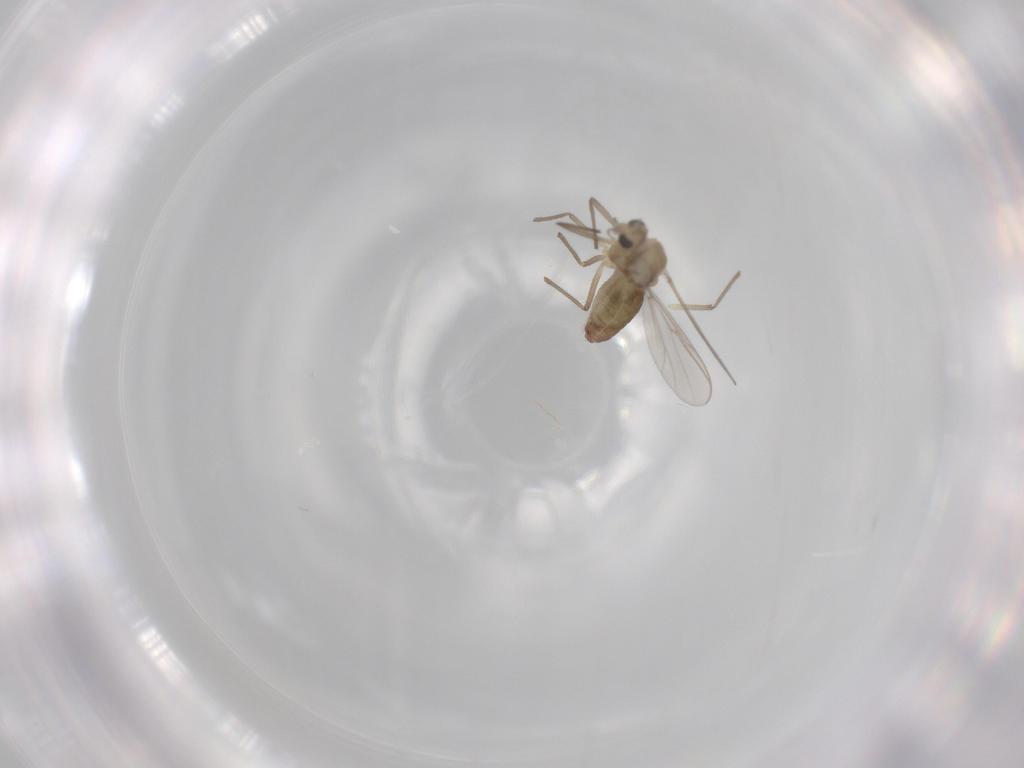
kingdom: Animalia
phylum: Arthropoda
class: Insecta
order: Diptera
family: Chironomidae
